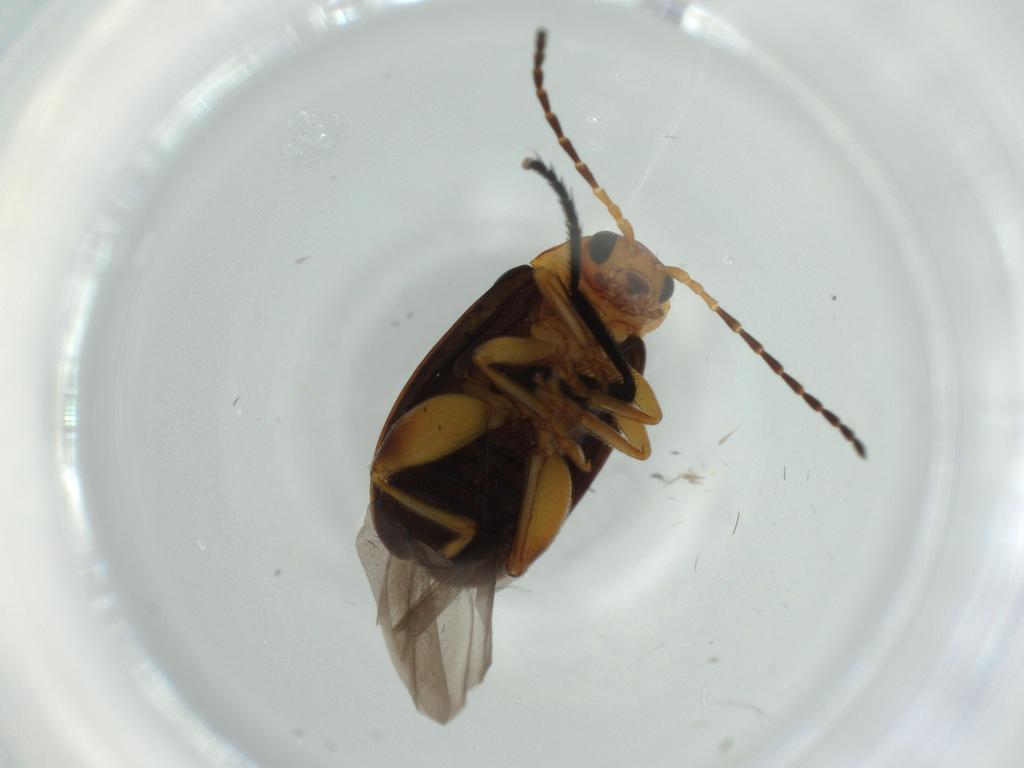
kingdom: Animalia
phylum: Arthropoda
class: Insecta
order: Coleoptera
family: Chrysomelidae
